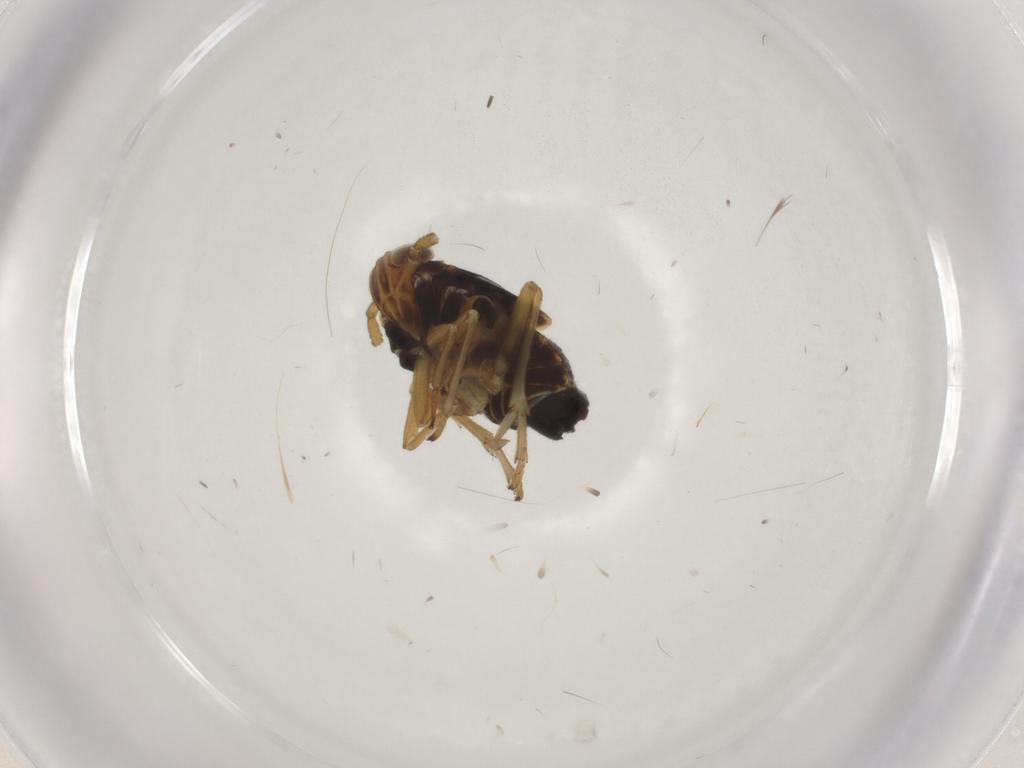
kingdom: Animalia
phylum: Arthropoda
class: Insecta
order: Hemiptera
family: Delphacidae
